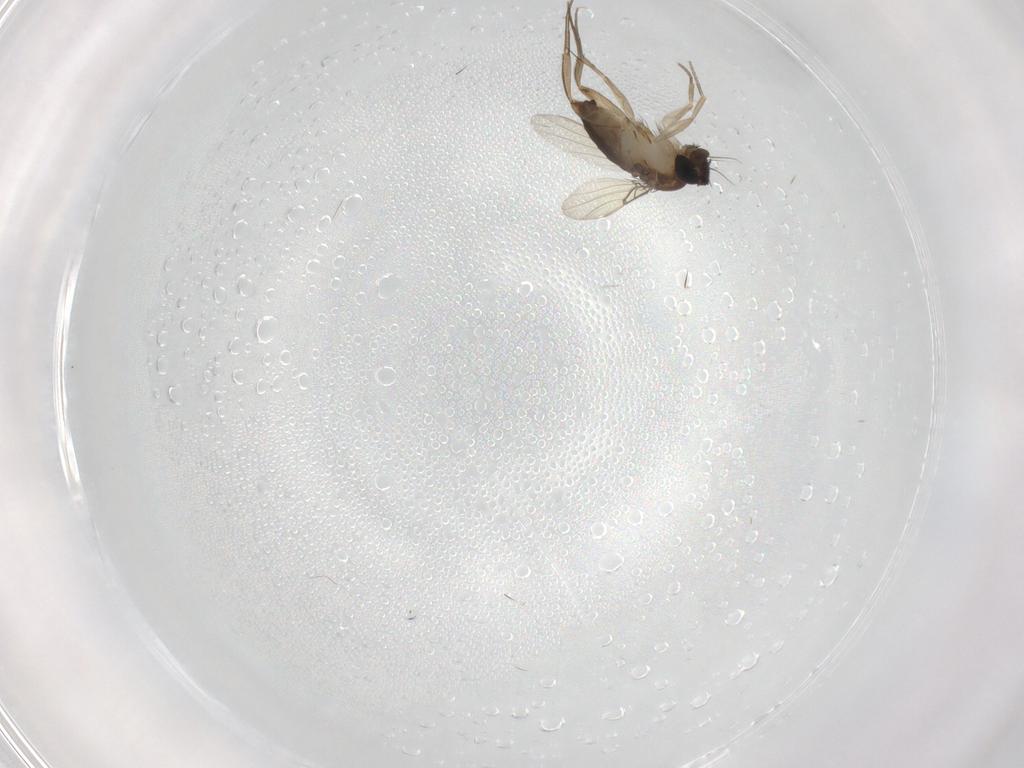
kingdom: Animalia
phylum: Arthropoda
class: Insecta
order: Diptera
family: Phoridae
